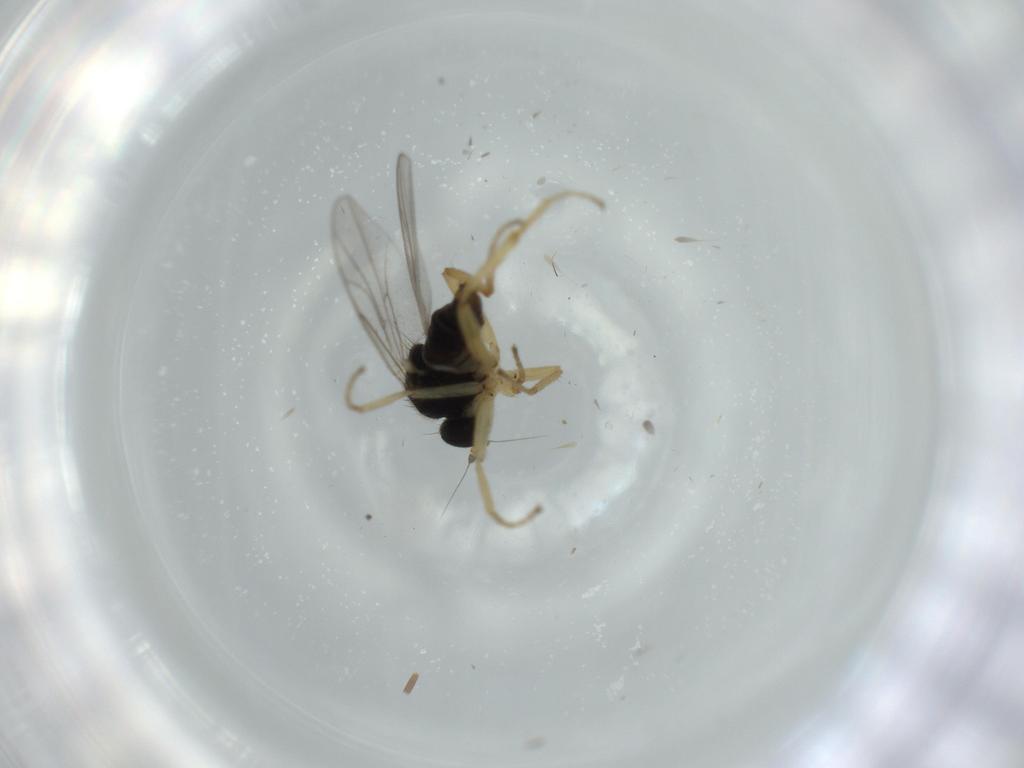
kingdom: Animalia
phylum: Arthropoda
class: Insecta
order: Diptera
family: Hybotidae
